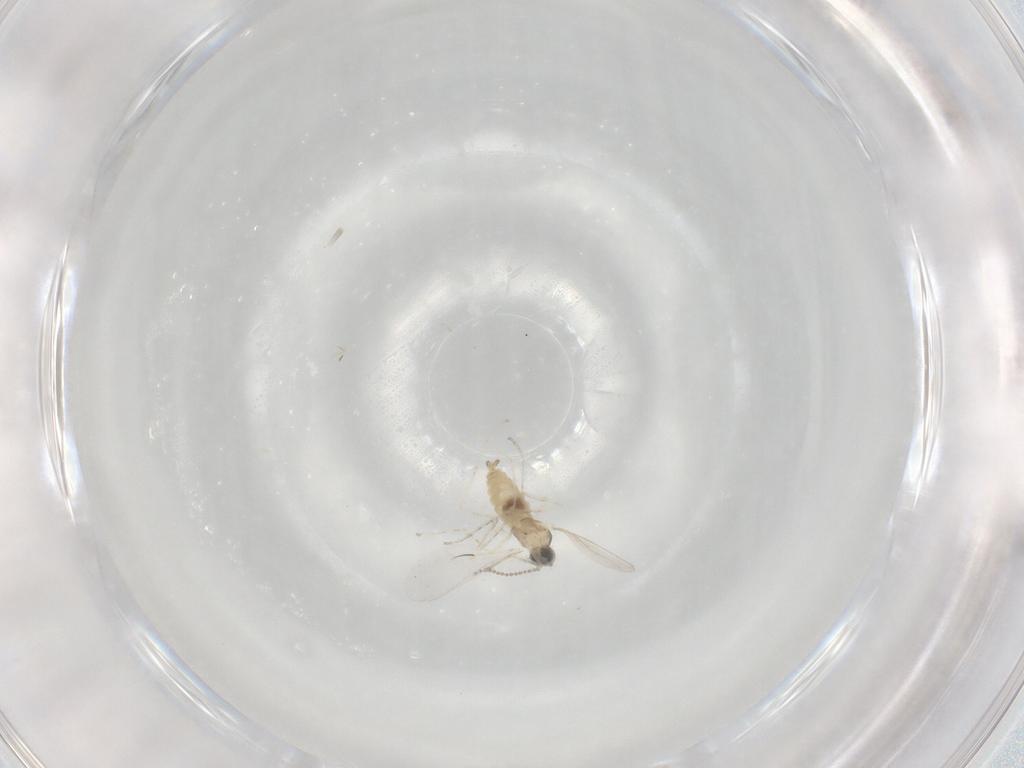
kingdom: Animalia
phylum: Arthropoda
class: Insecta
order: Diptera
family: Cecidomyiidae
